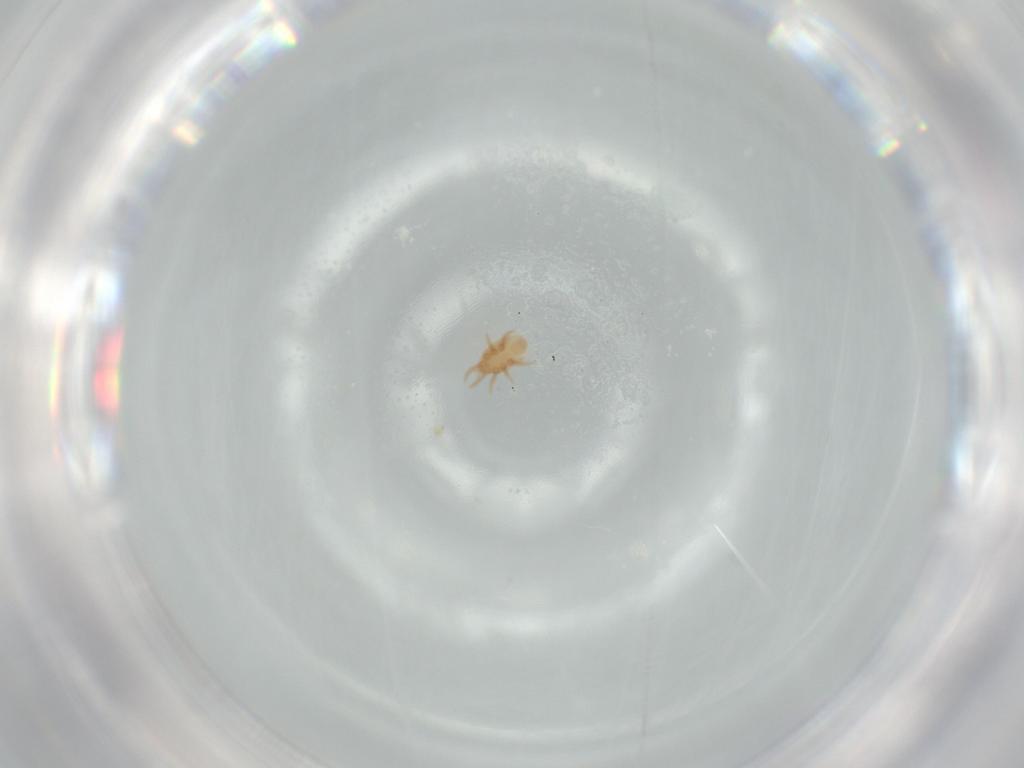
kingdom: Animalia
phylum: Arthropoda
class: Arachnida
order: Mesostigmata
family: Dinychidae
